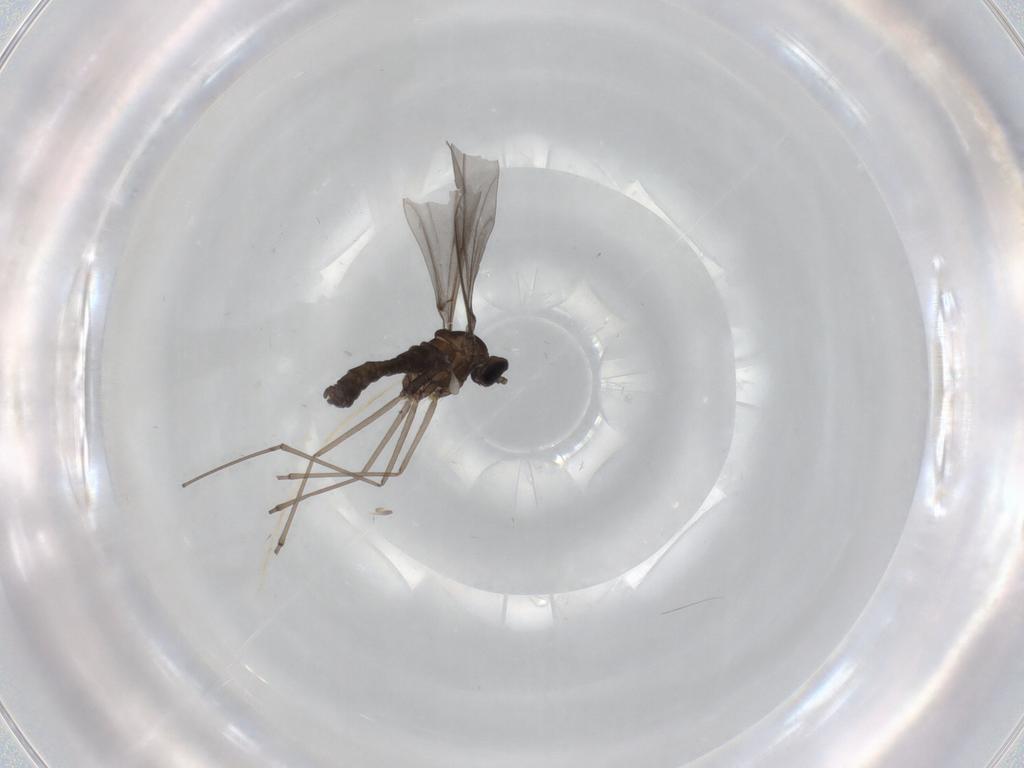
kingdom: Animalia
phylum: Arthropoda
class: Insecta
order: Diptera
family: Cecidomyiidae
